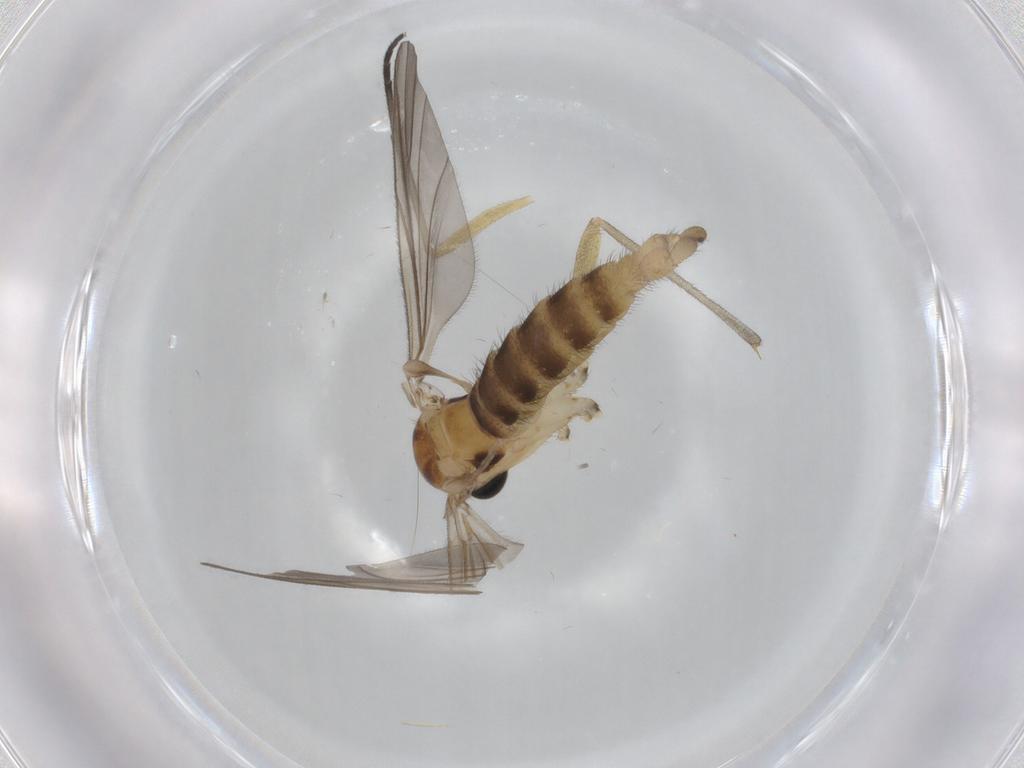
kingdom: Animalia
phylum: Arthropoda
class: Insecta
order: Diptera
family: Sciaridae
